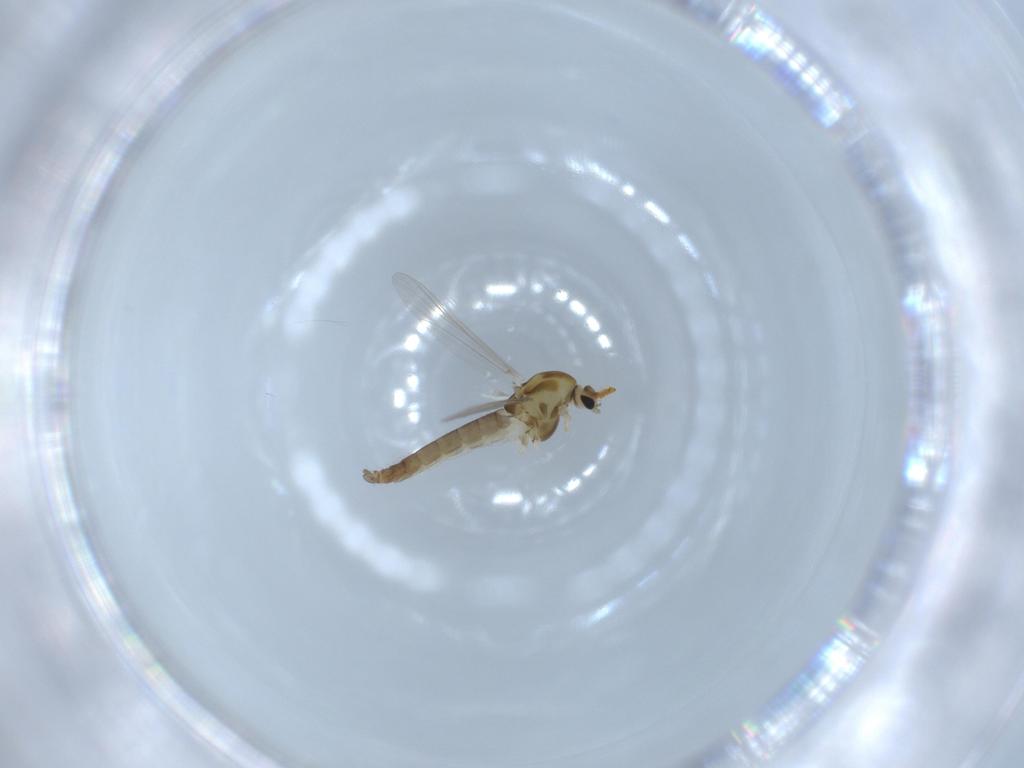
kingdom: Animalia
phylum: Arthropoda
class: Insecta
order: Diptera
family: Chironomidae
